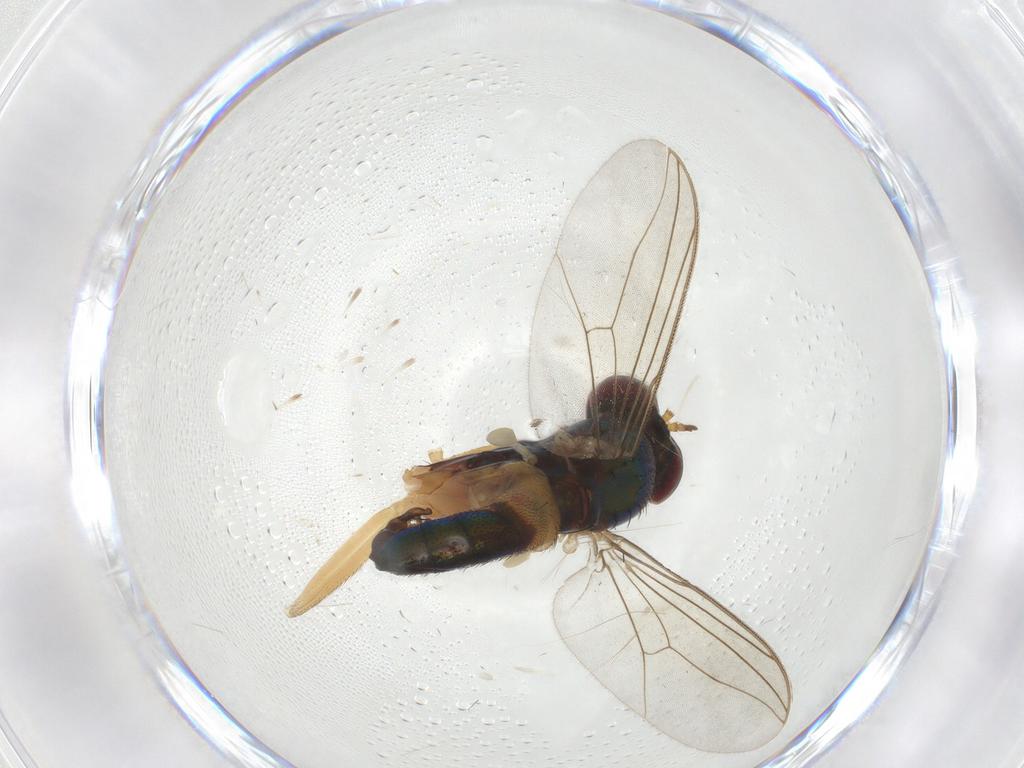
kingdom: Animalia
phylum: Arthropoda
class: Insecta
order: Diptera
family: Dolichopodidae
